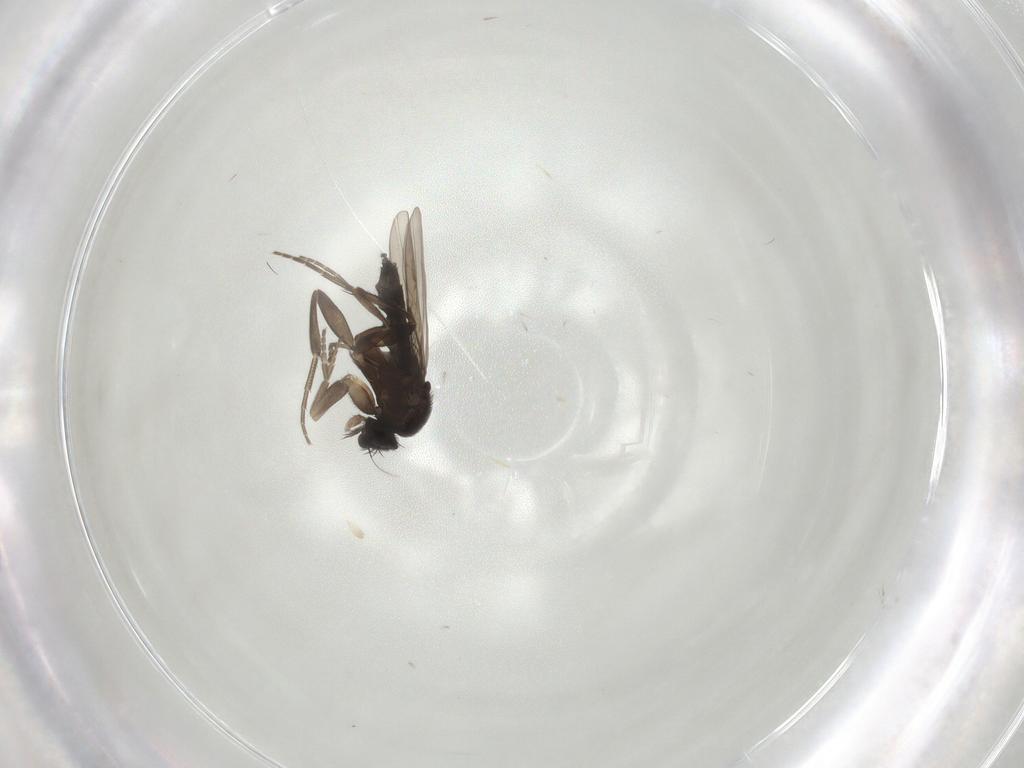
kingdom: Animalia
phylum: Arthropoda
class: Insecta
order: Diptera
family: Phoridae
